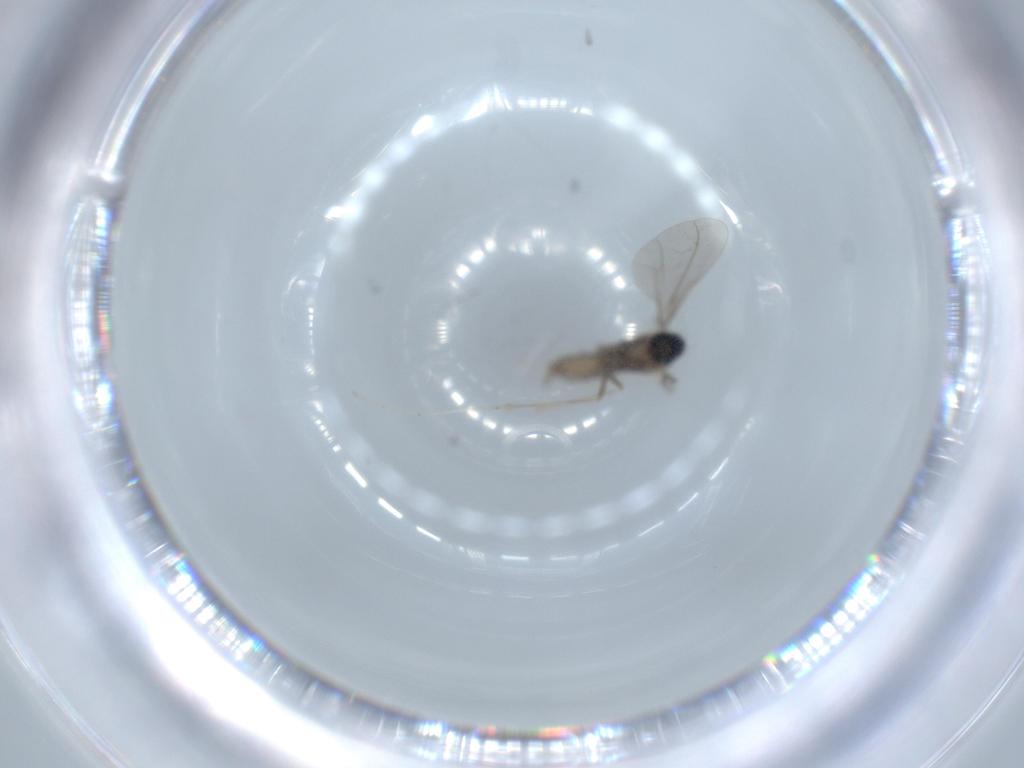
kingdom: Animalia
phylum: Arthropoda
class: Insecta
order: Diptera
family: Cecidomyiidae
